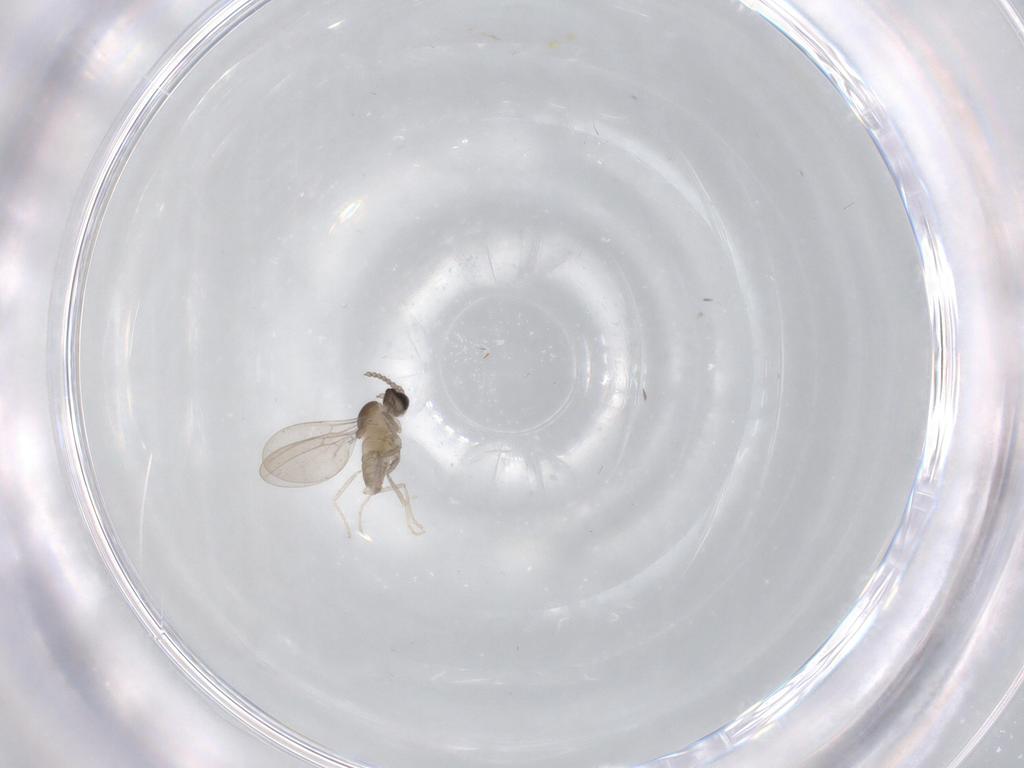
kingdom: Animalia
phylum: Arthropoda
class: Insecta
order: Diptera
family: Cecidomyiidae
